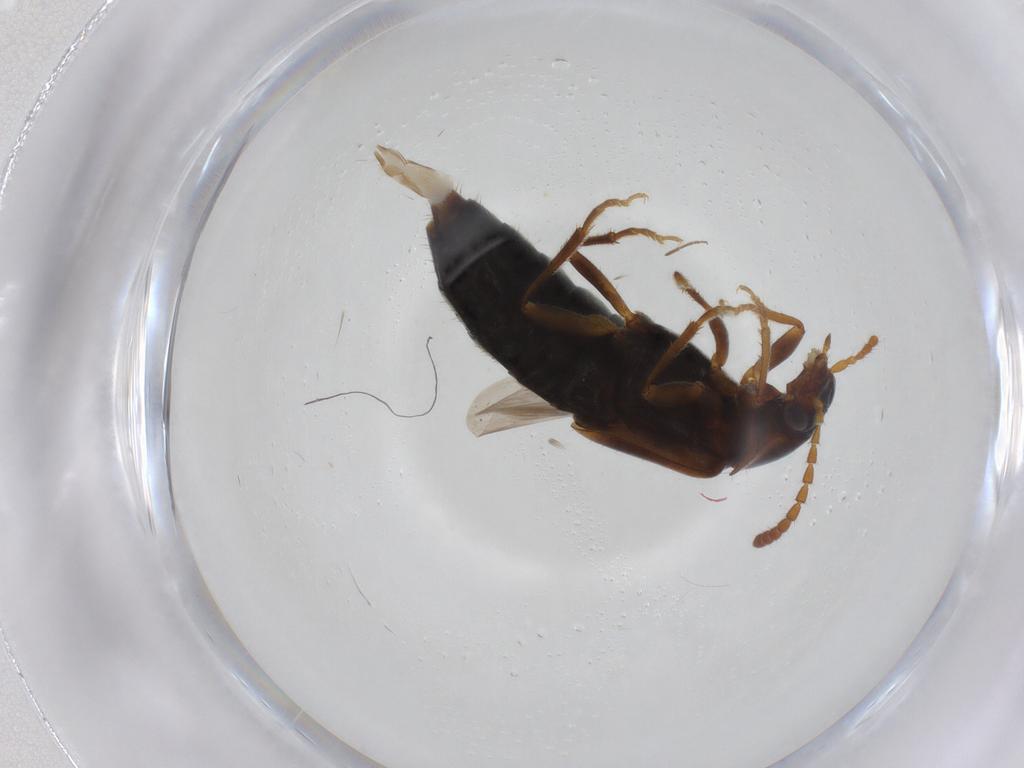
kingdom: Animalia
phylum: Arthropoda
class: Insecta
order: Coleoptera
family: Staphylinidae
